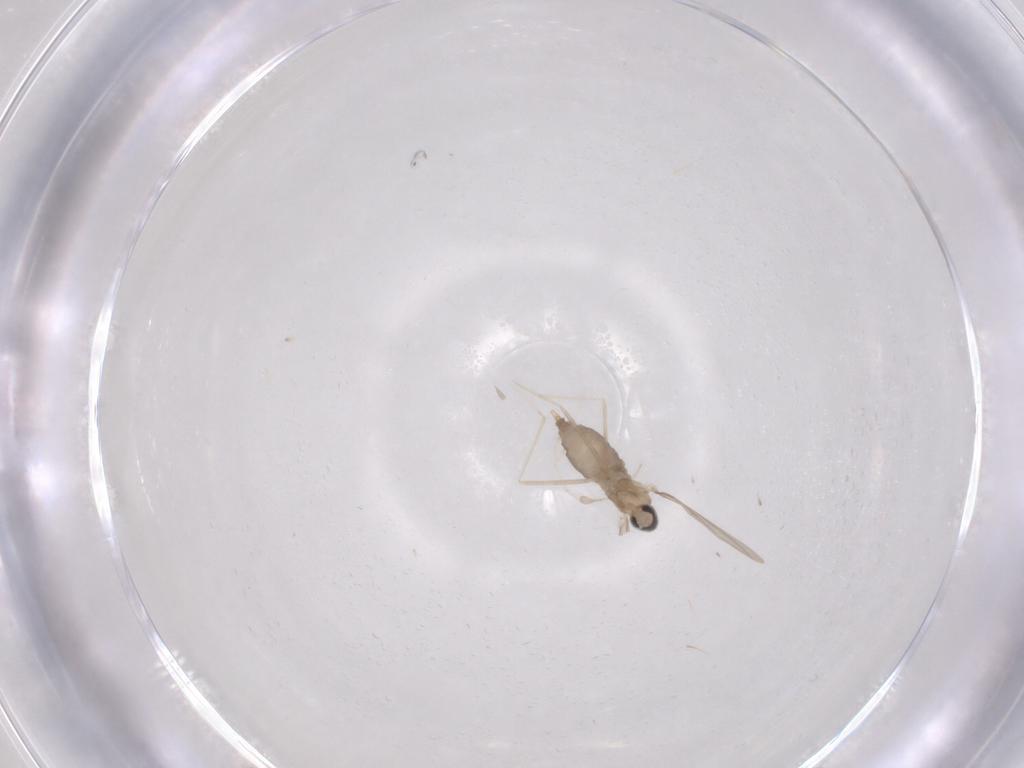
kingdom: Animalia
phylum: Arthropoda
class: Insecta
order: Diptera
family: Cecidomyiidae
